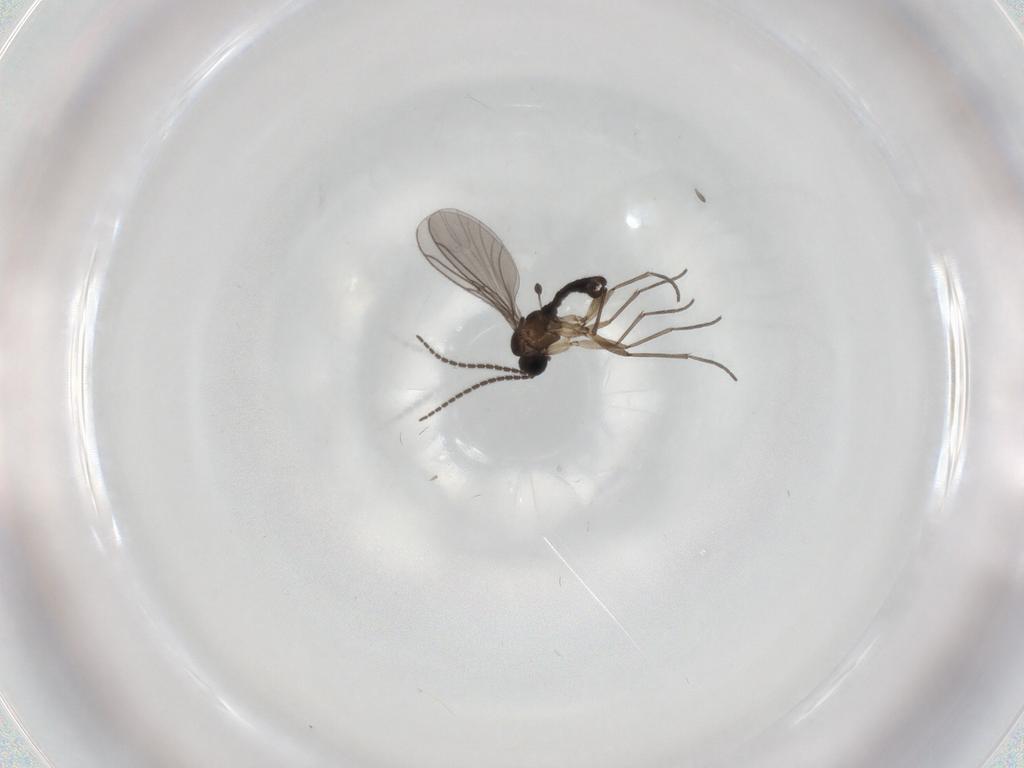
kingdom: Animalia
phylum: Arthropoda
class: Insecta
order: Diptera
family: Sciaridae
